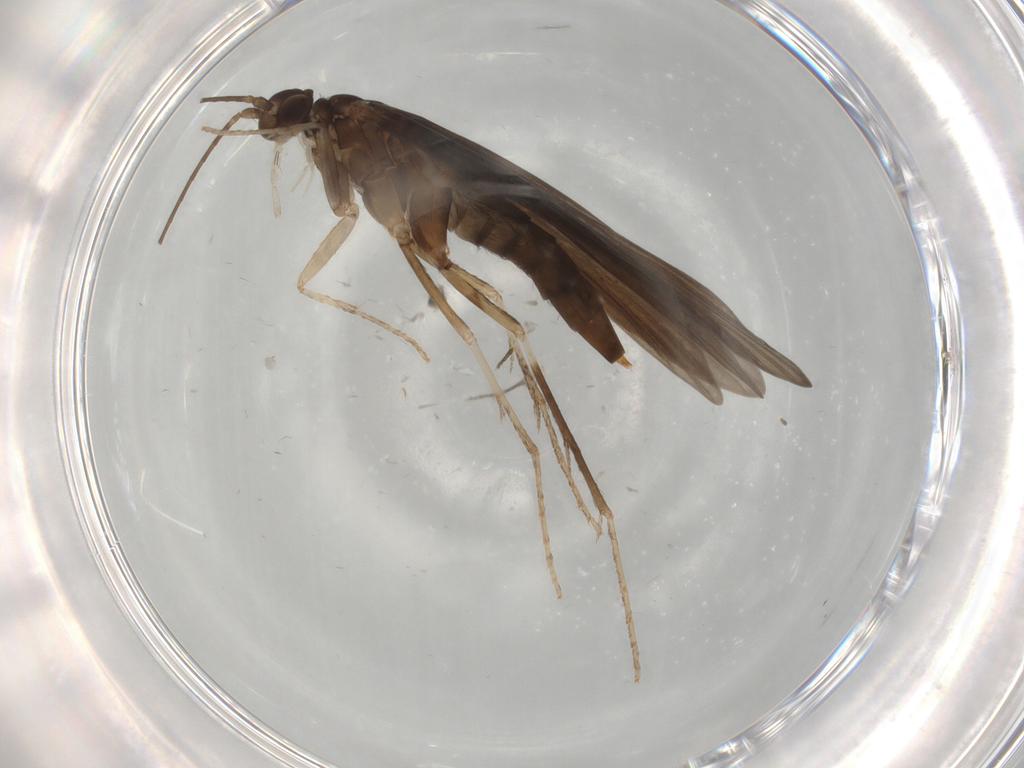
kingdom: Animalia
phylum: Arthropoda
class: Insecta
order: Trichoptera
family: Xiphocentronidae
